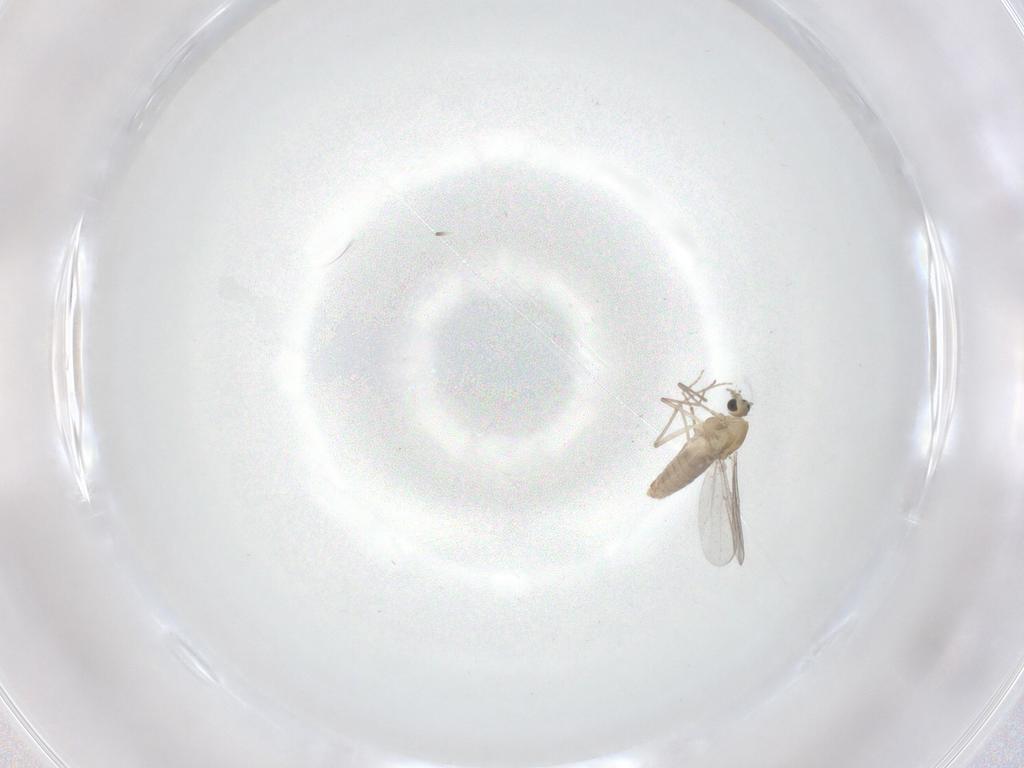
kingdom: Animalia
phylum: Arthropoda
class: Insecta
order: Diptera
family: Chironomidae
